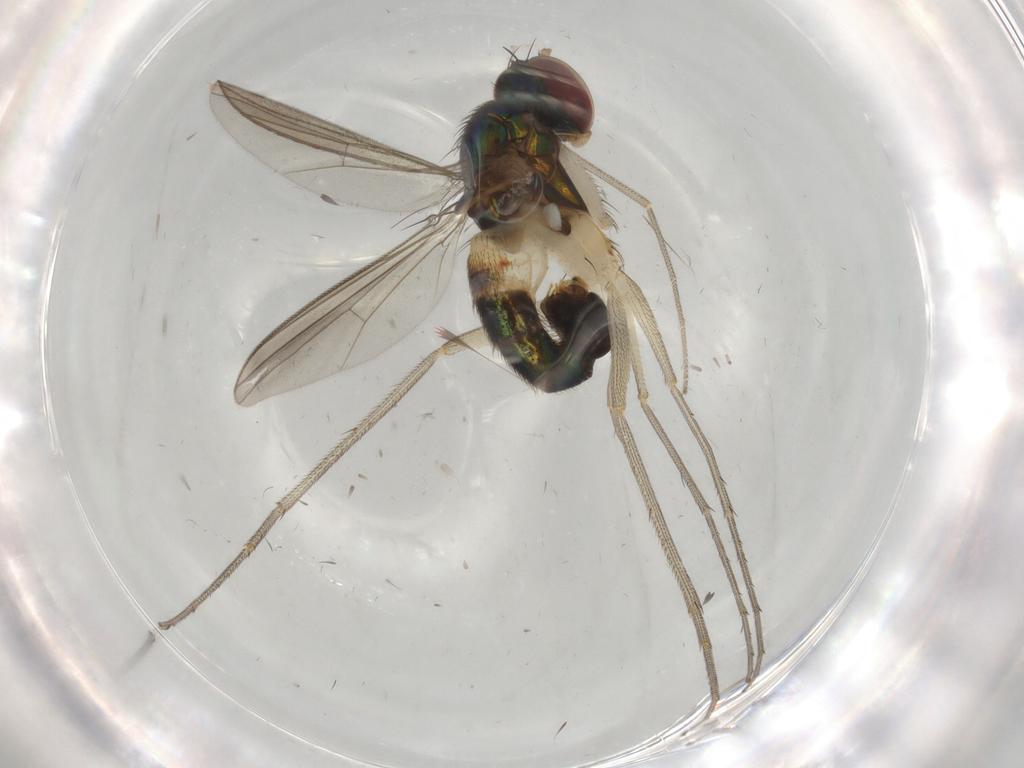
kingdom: Animalia
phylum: Arthropoda
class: Insecta
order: Diptera
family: Hybotidae
